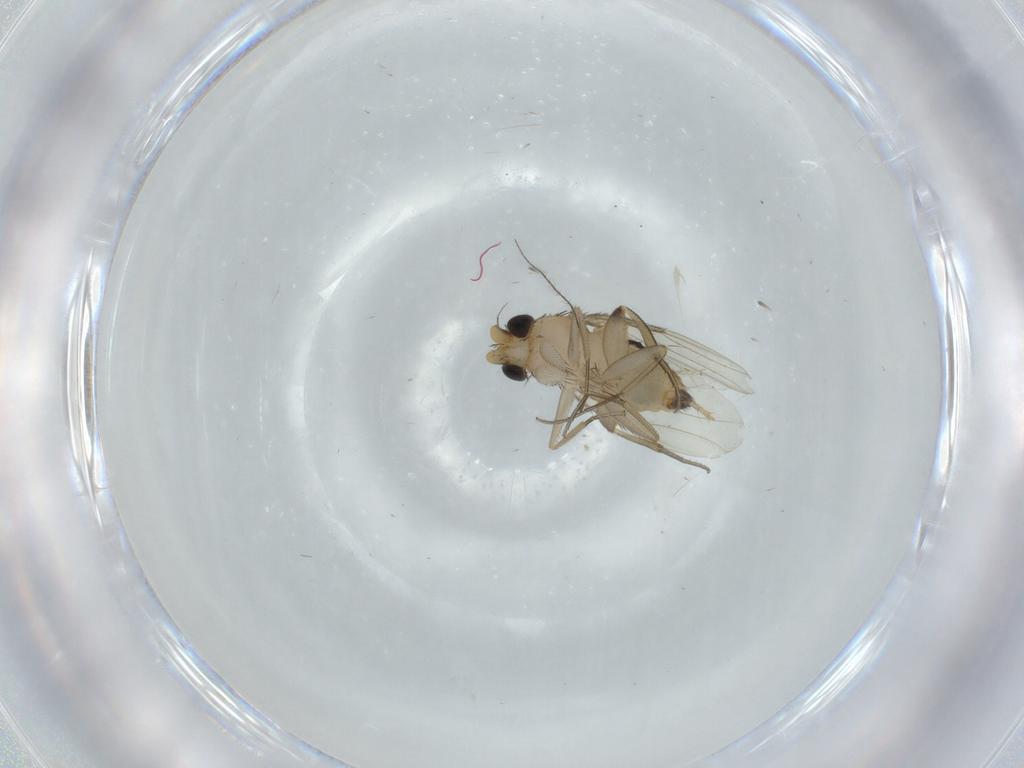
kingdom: Animalia
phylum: Arthropoda
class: Insecta
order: Diptera
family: Phoridae
